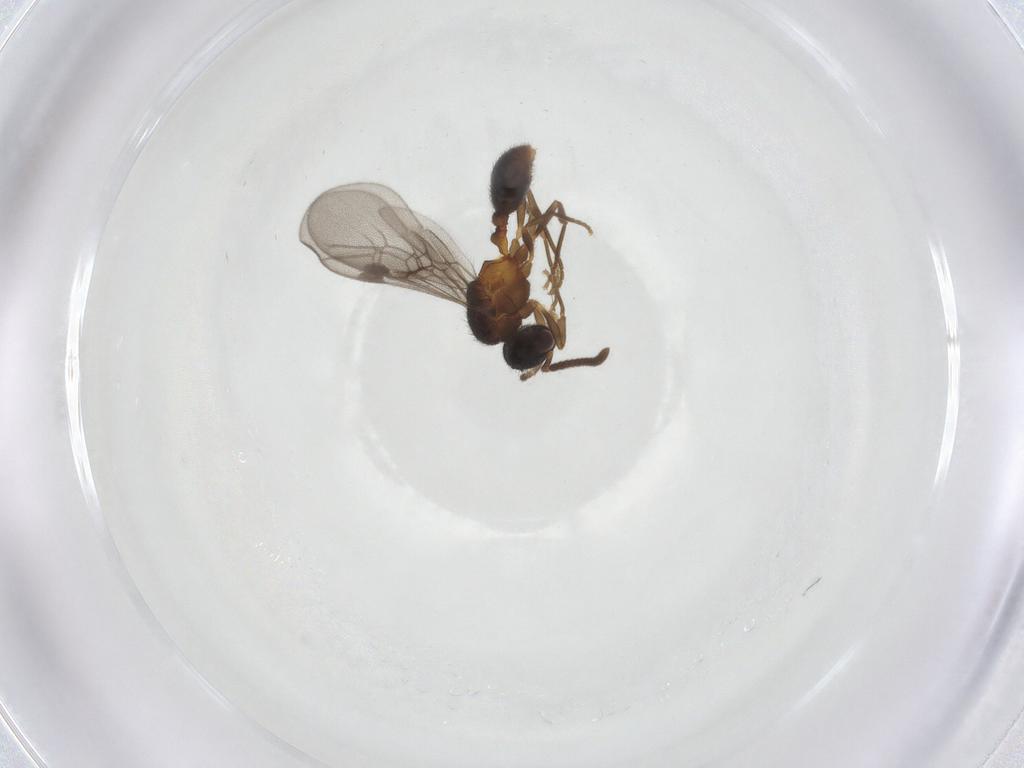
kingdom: Animalia
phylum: Arthropoda
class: Insecta
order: Hymenoptera
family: Formicidae
